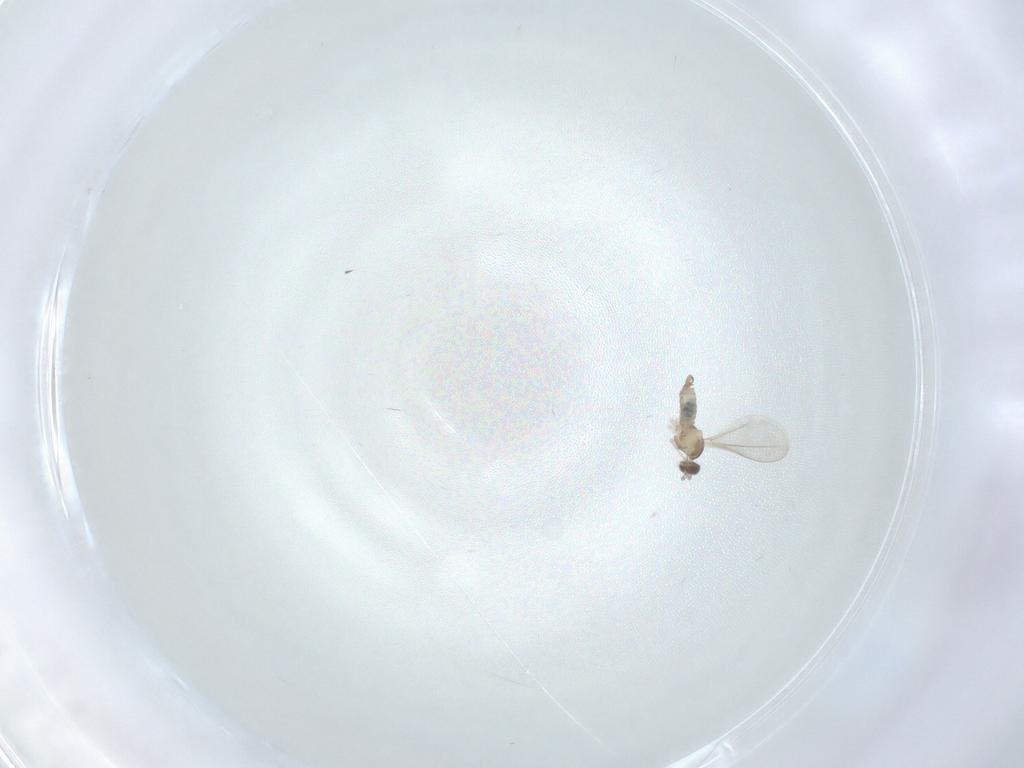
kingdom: Animalia
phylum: Arthropoda
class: Insecta
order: Diptera
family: Cecidomyiidae
